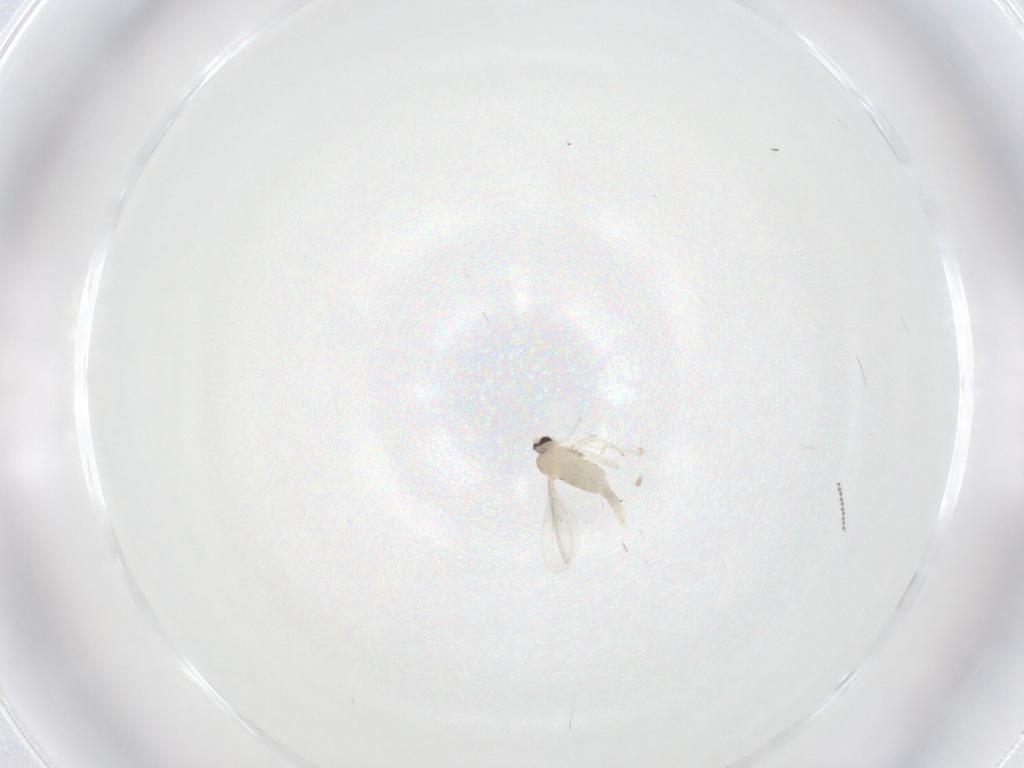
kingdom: Animalia
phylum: Arthropoda
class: Insecta
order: Diptera
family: Cecidomyiidae
